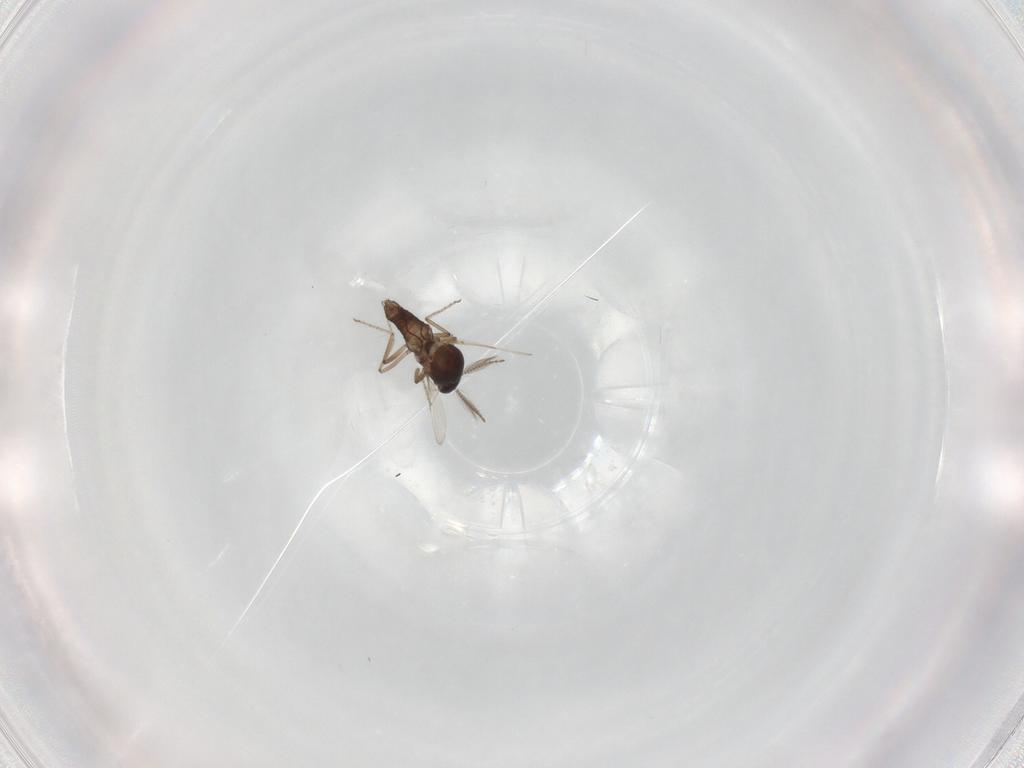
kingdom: Animalia
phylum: Arthropoda
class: Insecta
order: Diptera
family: Ceratopogonidae
